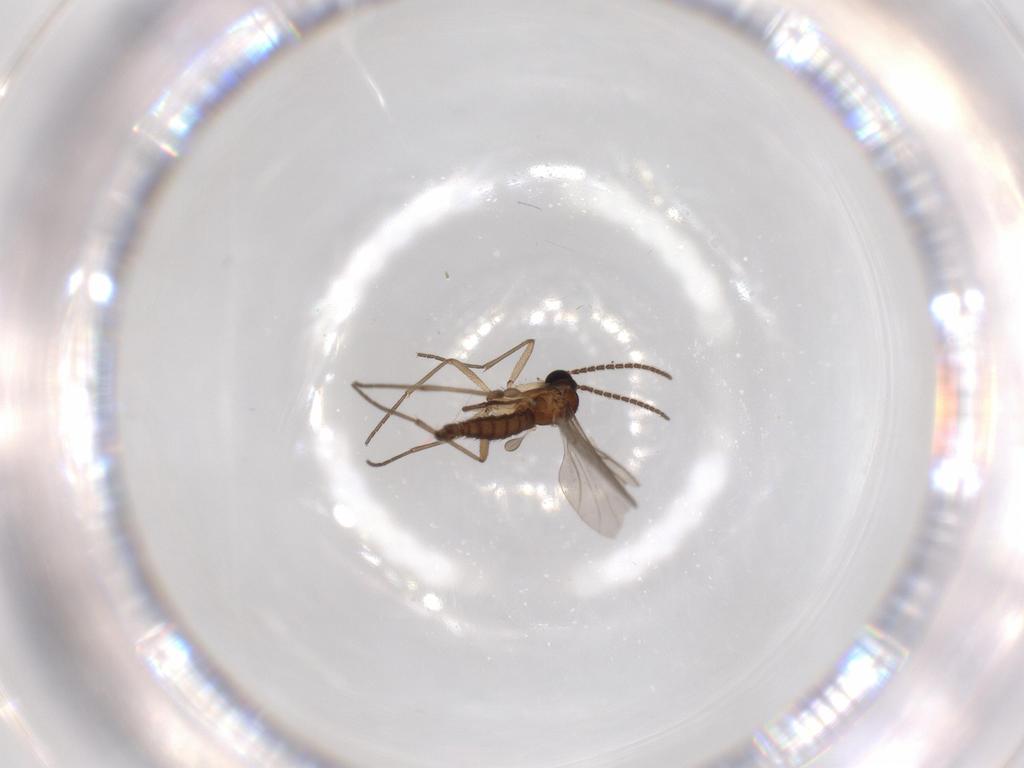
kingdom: Animalia
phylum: Arthropoda
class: Insecta
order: Diptera
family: Sciaridae
